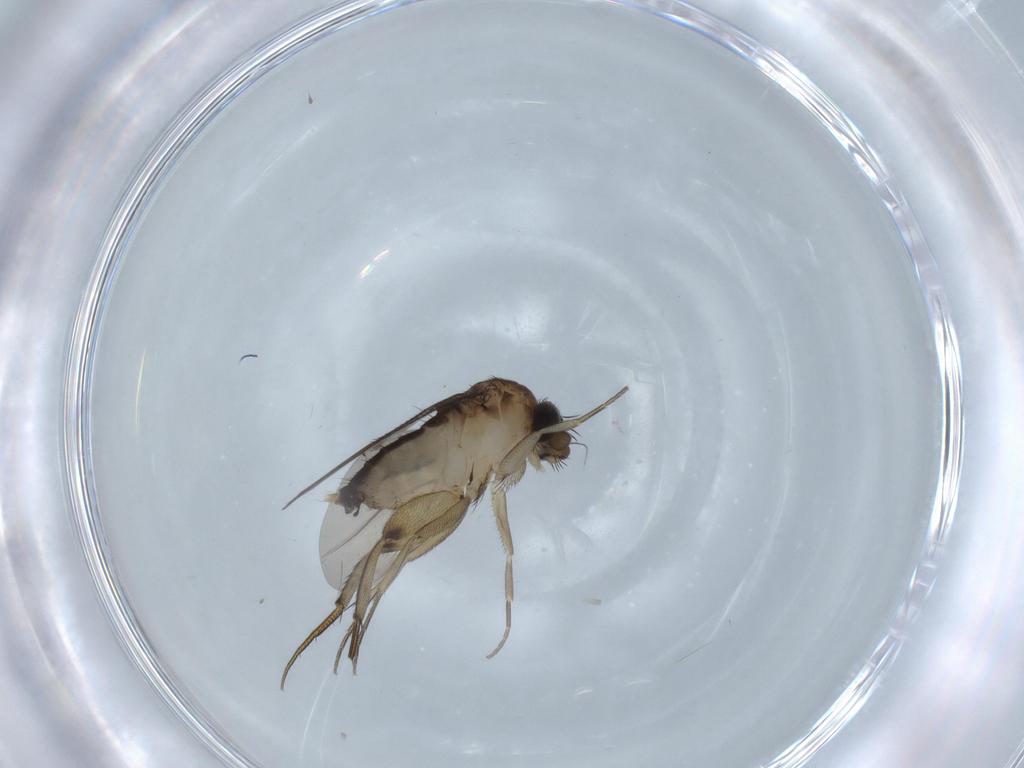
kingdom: Animalia
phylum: Arthropoda
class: Insecta
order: Diptera
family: Phoridae
